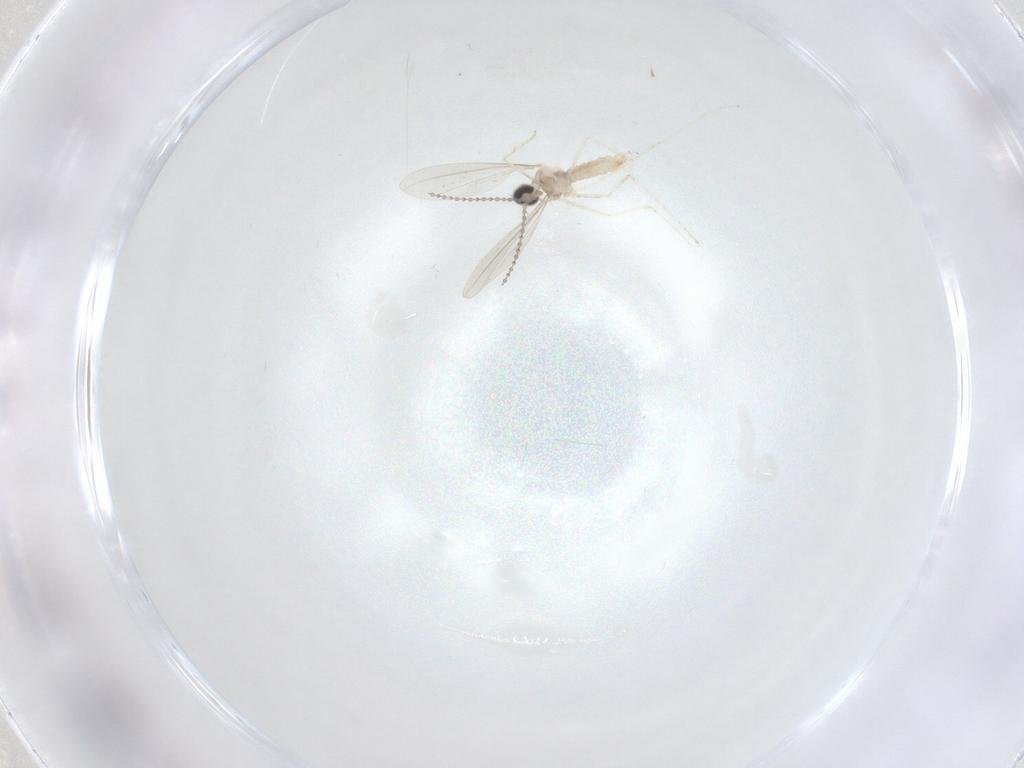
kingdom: Animalia
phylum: Arthropoda
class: Insecta
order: Diptera
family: Cecidomyiidae
